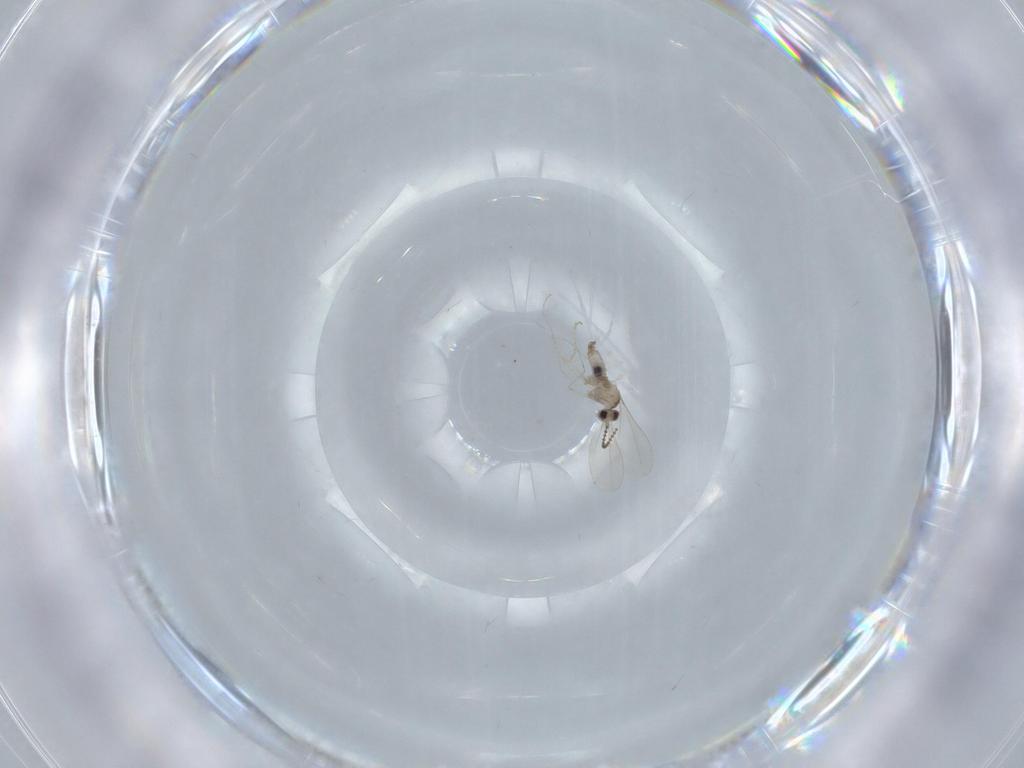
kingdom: Animalia
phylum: Arthropoda
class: Insecta
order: Diptera
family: Cecidomyiidae
